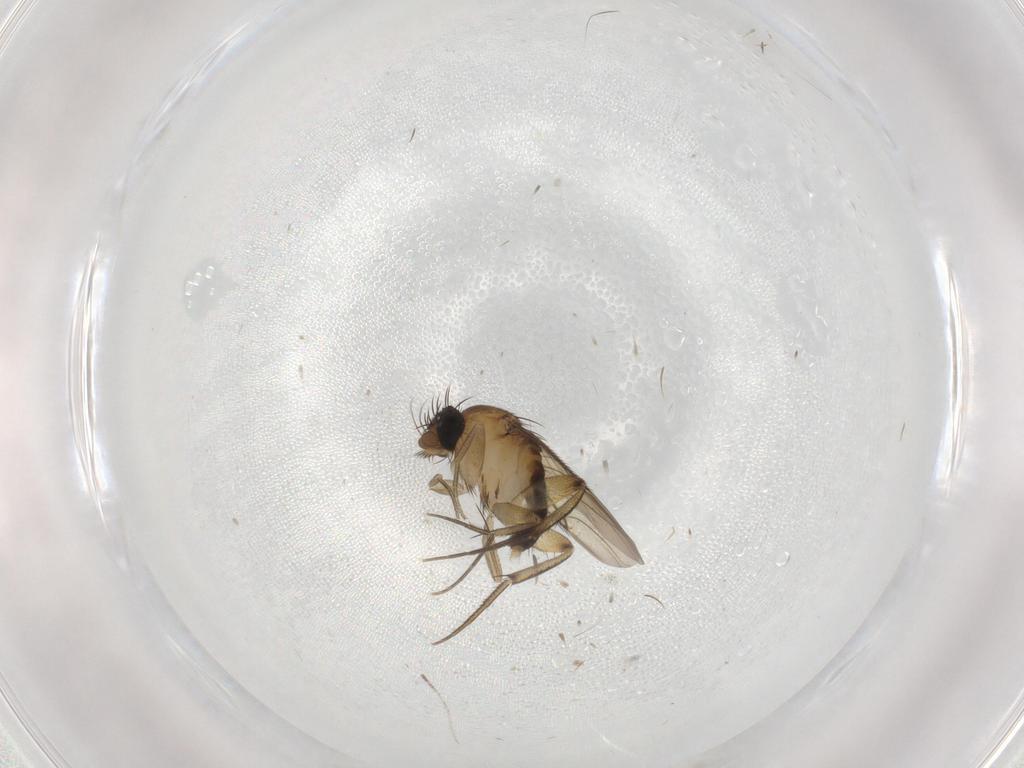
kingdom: Animalia
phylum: Arthropoda
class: Insecta
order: Diptera
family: Phoridae
